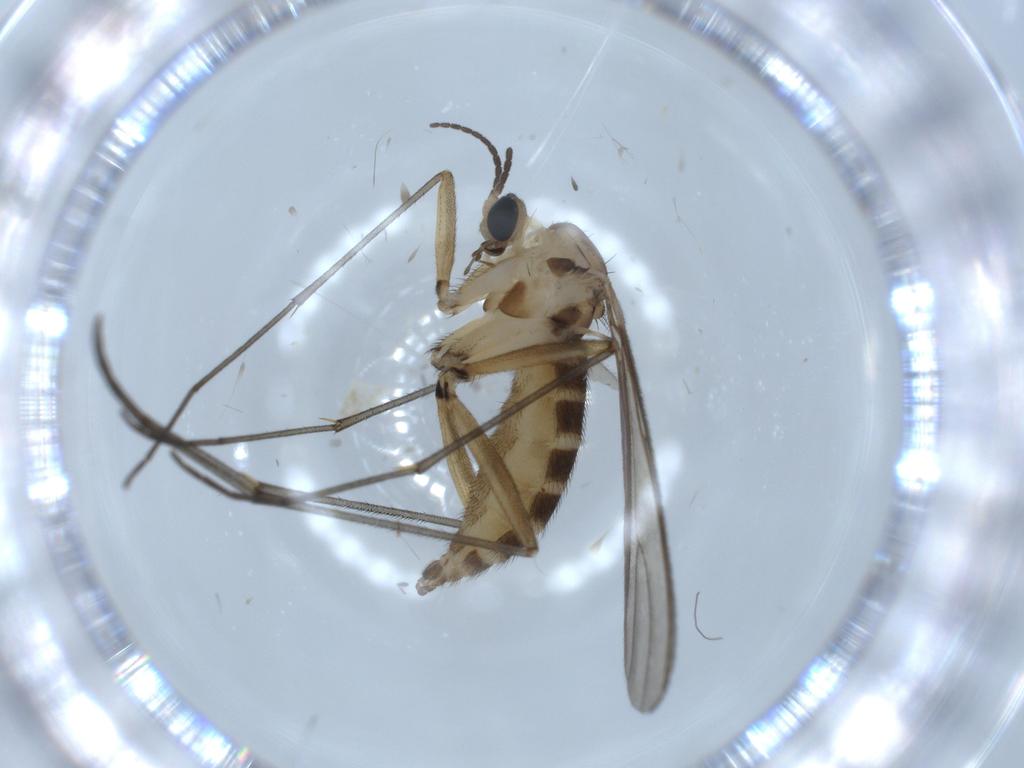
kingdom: Animalia
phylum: Arthropoda
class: Insecta
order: Diptera
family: Sciaridae
